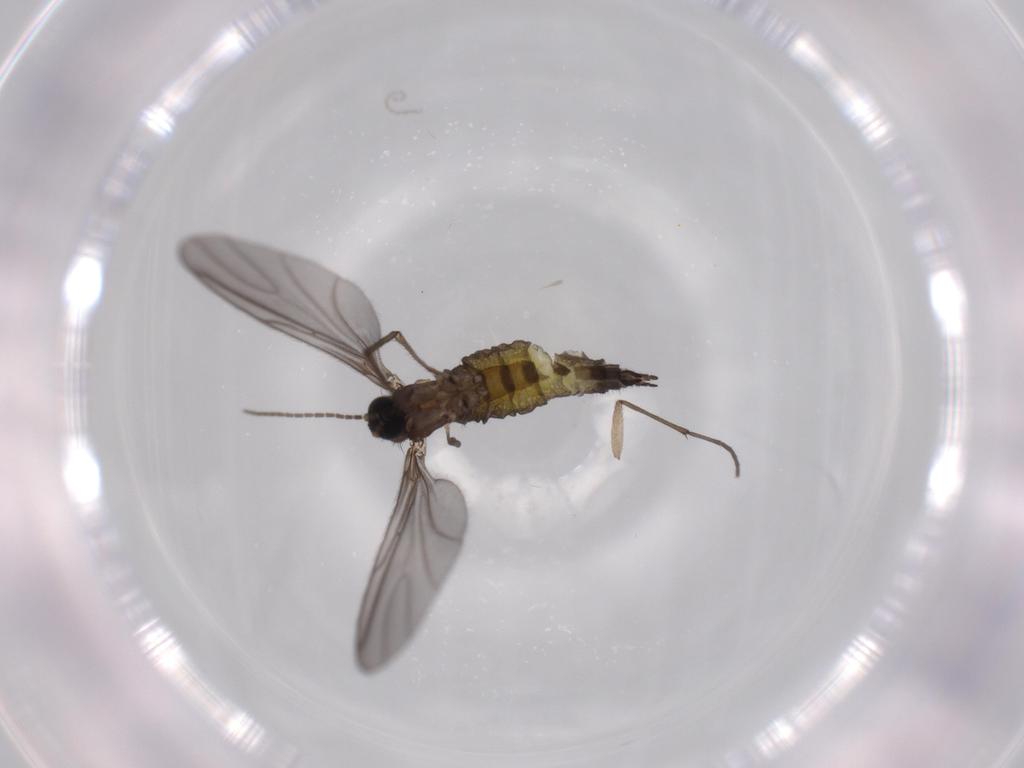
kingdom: Animalia
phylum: Arthropoda
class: Insecta
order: Diptera
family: Sciaridae
